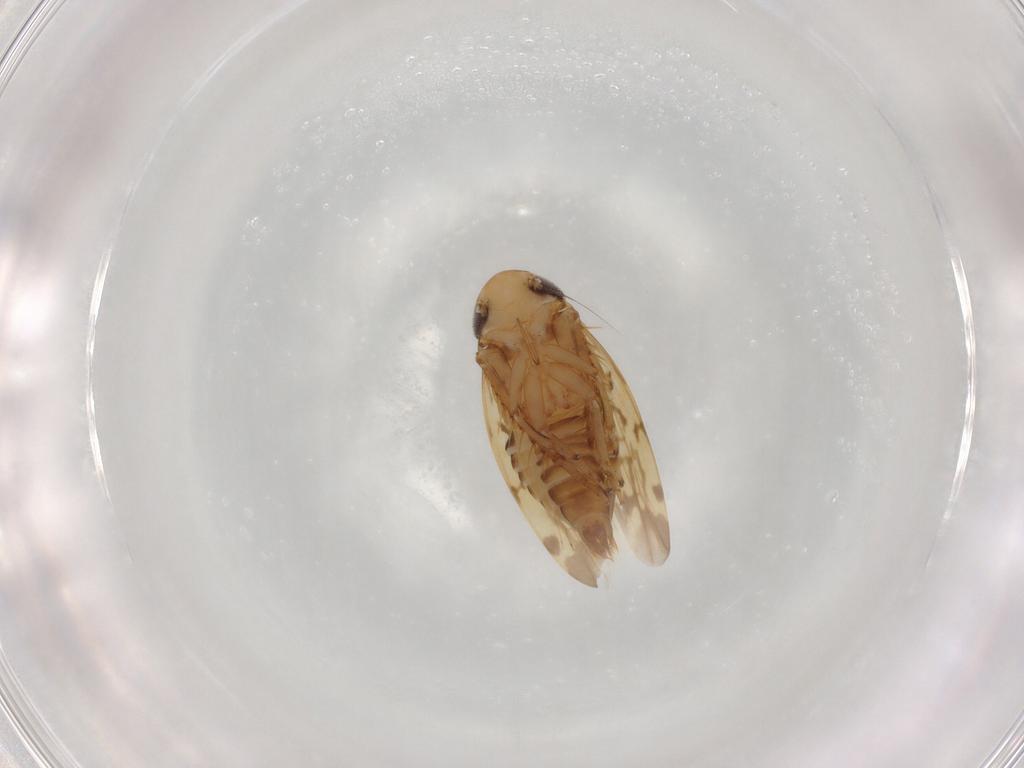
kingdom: Animalia
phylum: Arthropoda
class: Insecta
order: Hemiptera
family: Cicadellidae
